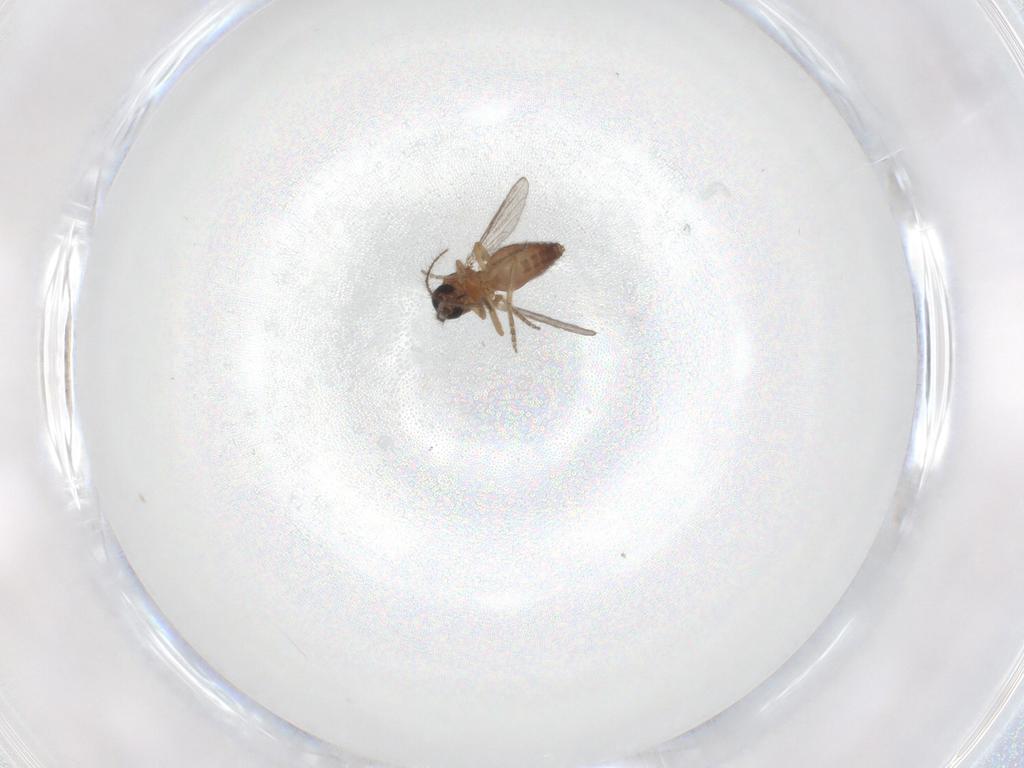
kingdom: Animalia
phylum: Arthropoda
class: Insecta
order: Diptera
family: Ceratopogonidae
